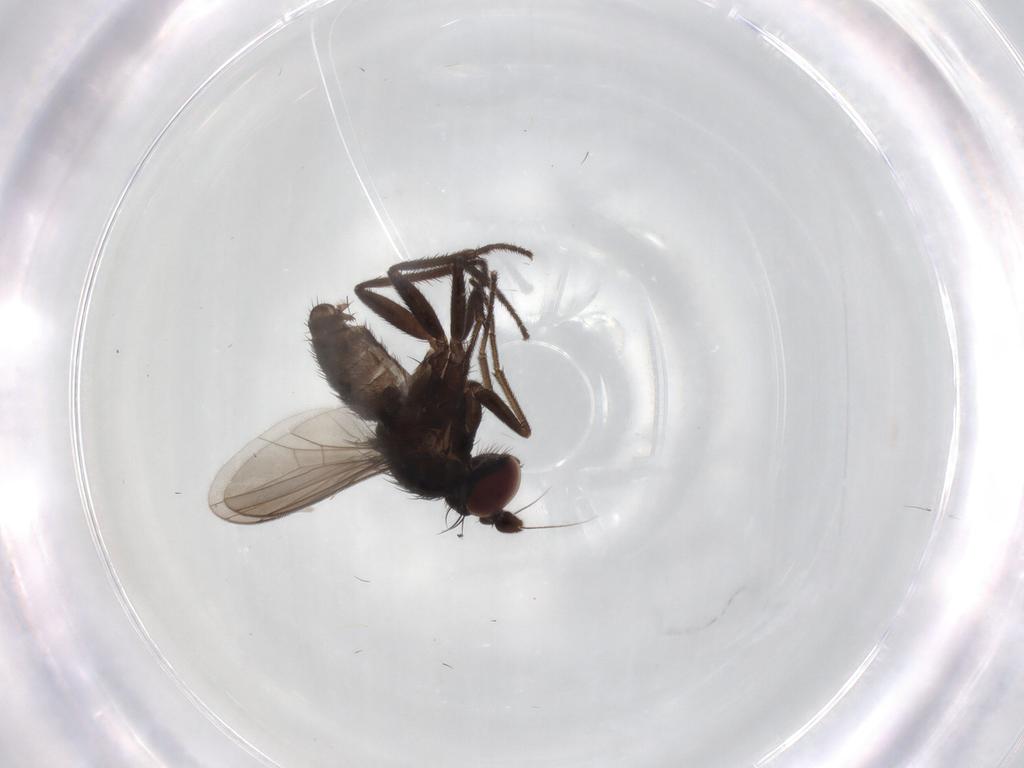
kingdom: Animalia
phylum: Arthropoda
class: Insecta
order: Diptera
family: Dolichopodidae
